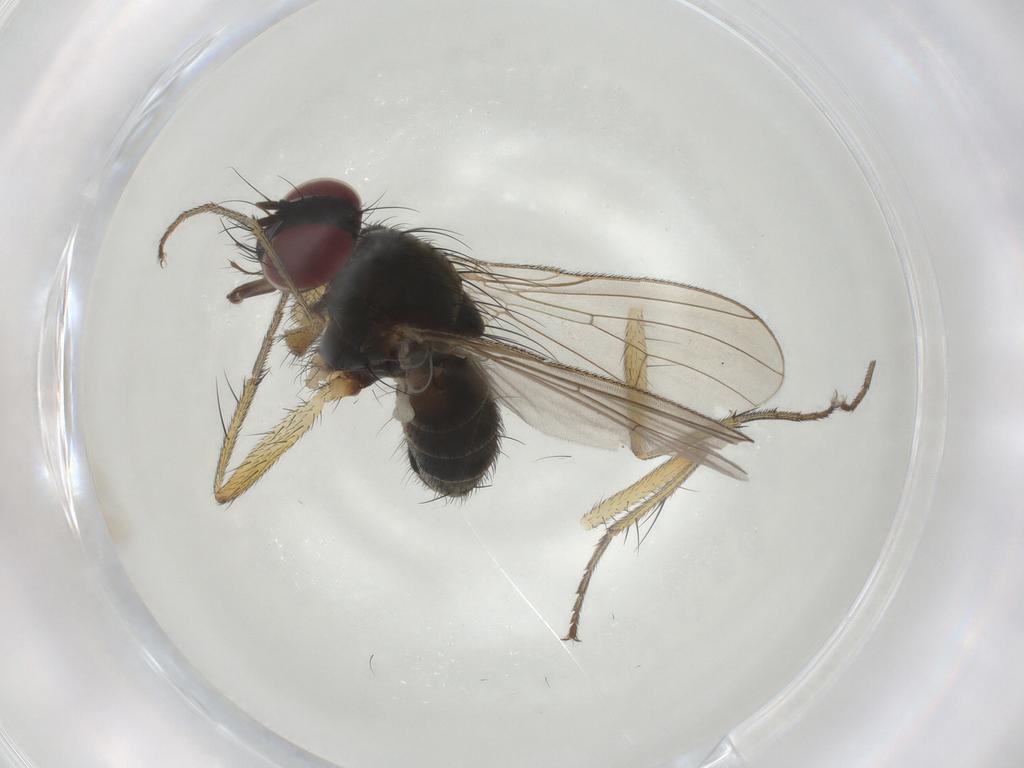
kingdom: Animalia
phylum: Arthropoda
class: Insecta
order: Diptera
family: Muscidae
